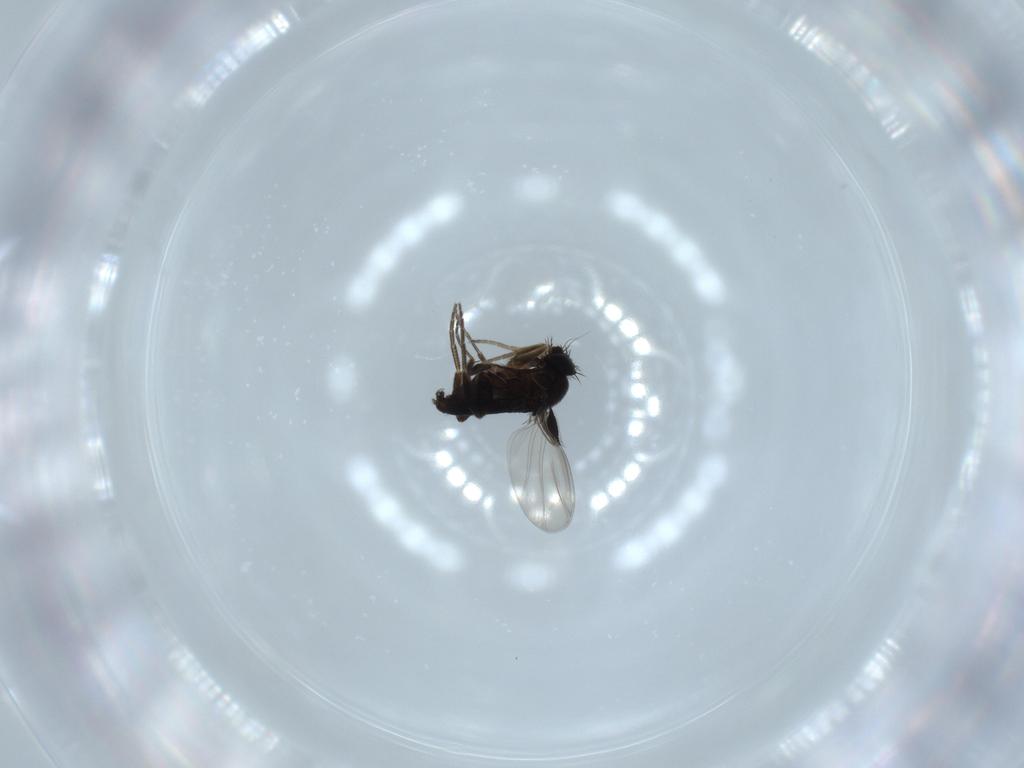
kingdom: Animalia
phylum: Arthropoda
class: Insecta
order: Diptera
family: Phoridae
